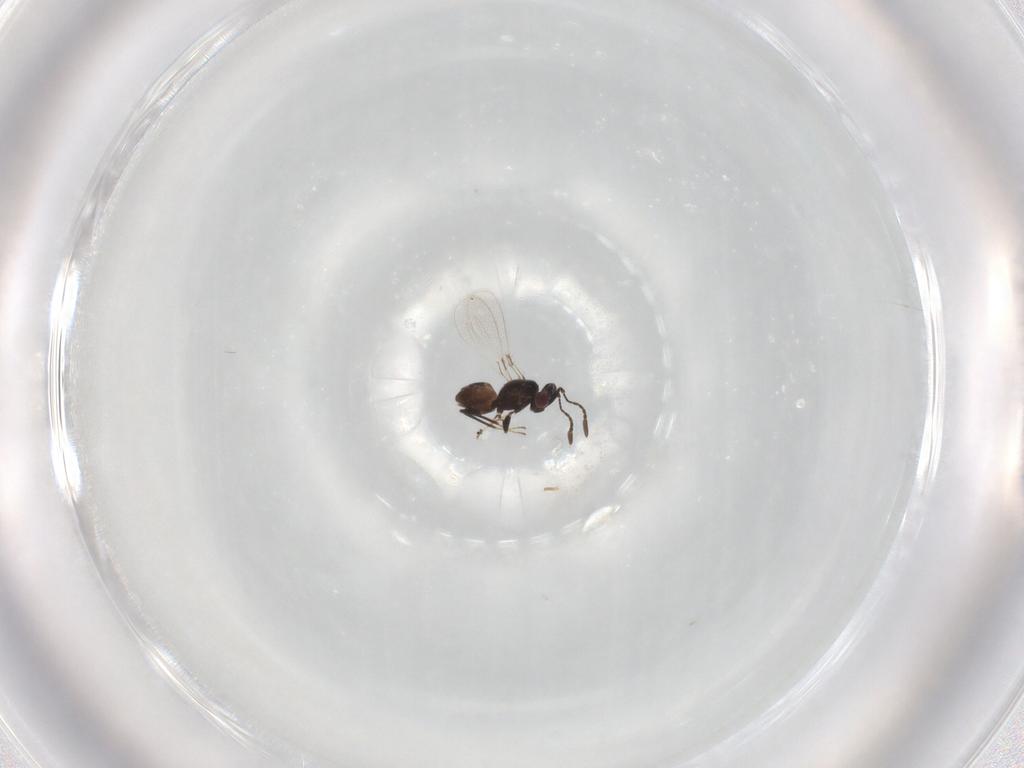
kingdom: Animalia
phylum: Arthropoda
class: Insecta
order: Hymenoptera
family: Mymaridae
